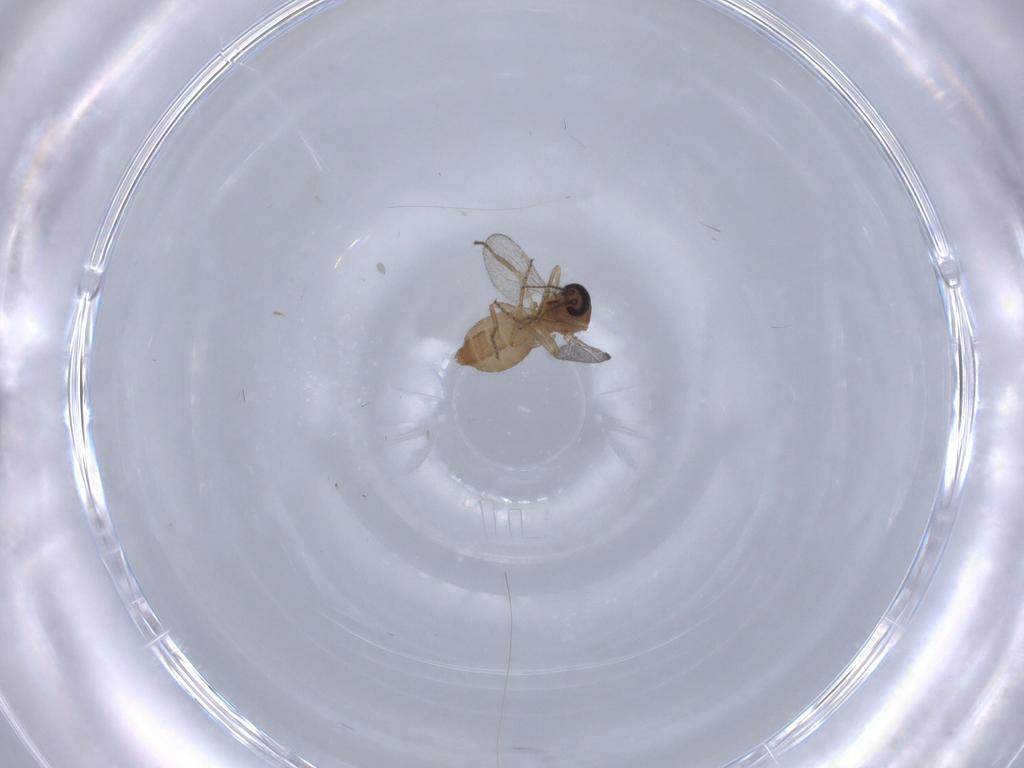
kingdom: Animalia
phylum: Arthropoda
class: Insecta
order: Diptera
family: Ceratopogonidae
